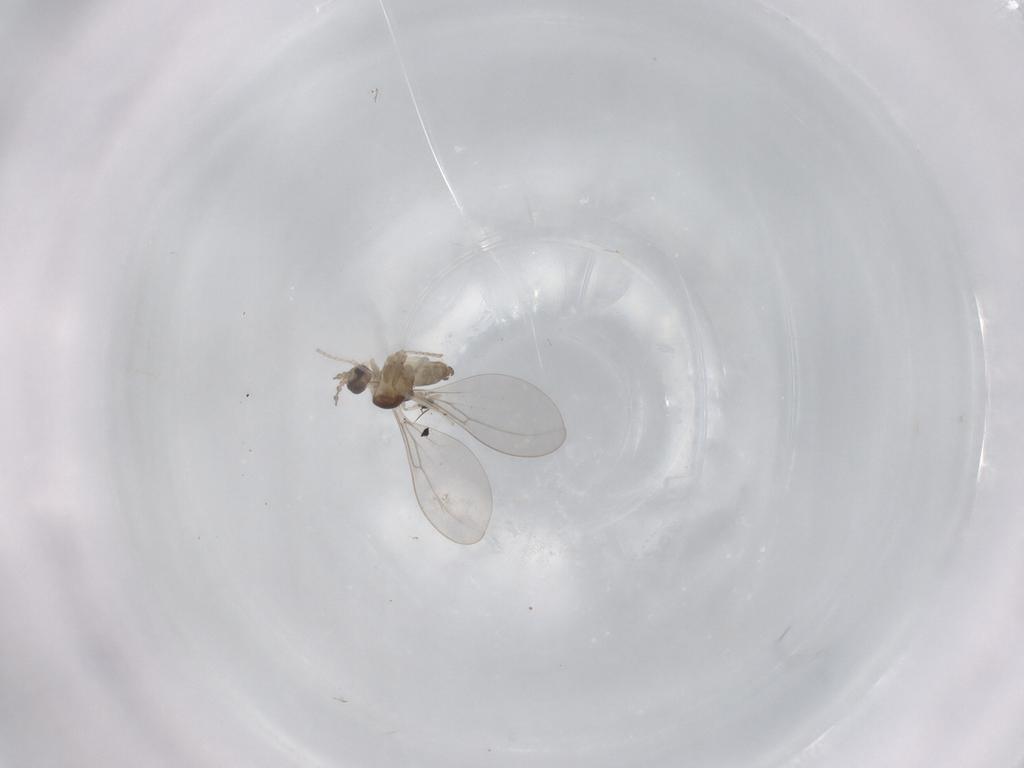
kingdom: Animalia
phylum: Arthropoda
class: Insecta
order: Diptera
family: Cecidomyiidae
